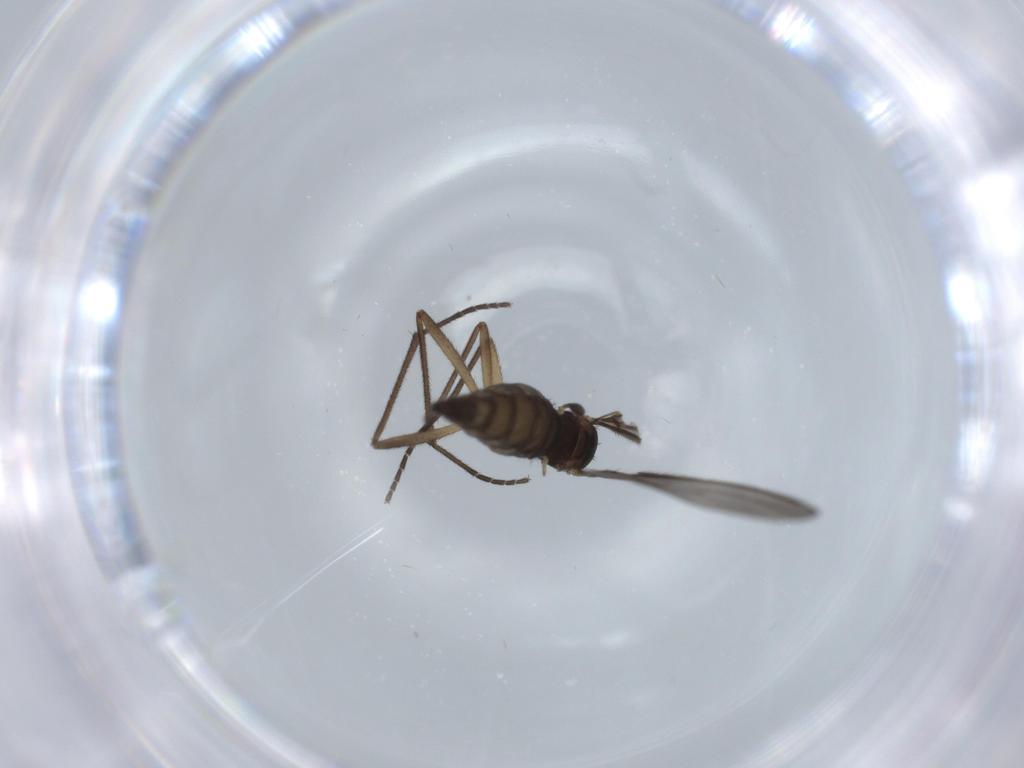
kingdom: Animalia
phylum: Arthropoda
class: Insecta
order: Diptera
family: Sciaridae
